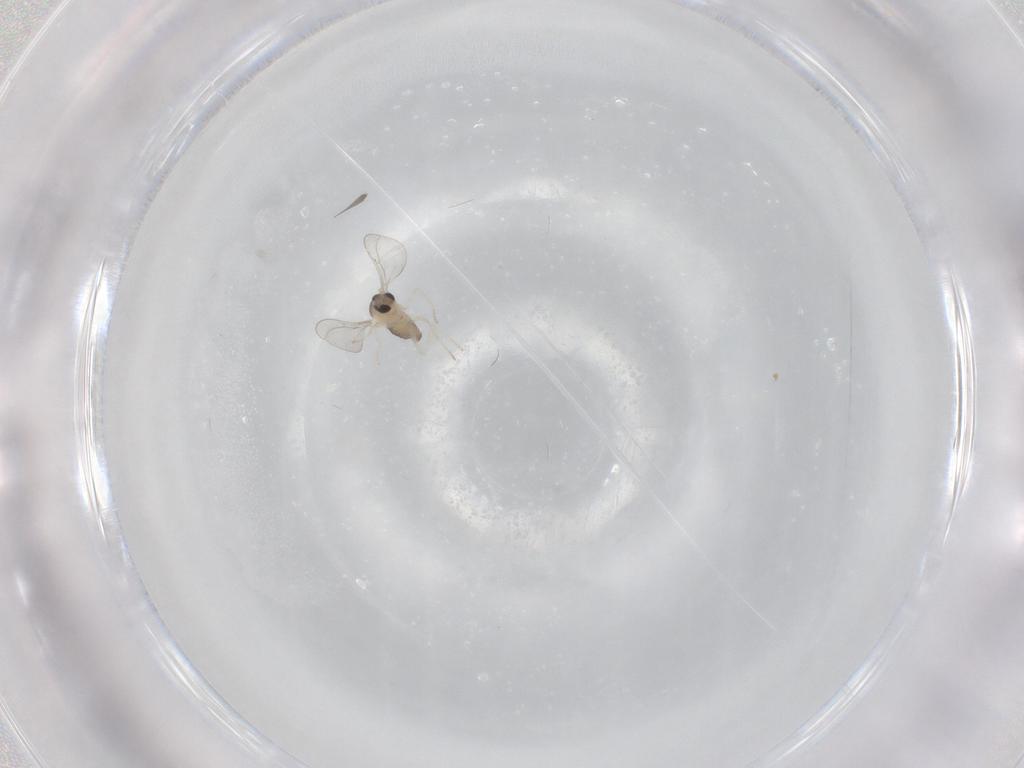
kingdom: Animalia
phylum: Arthropoda
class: Insecta
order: Diptera
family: Cecidomyiidae
